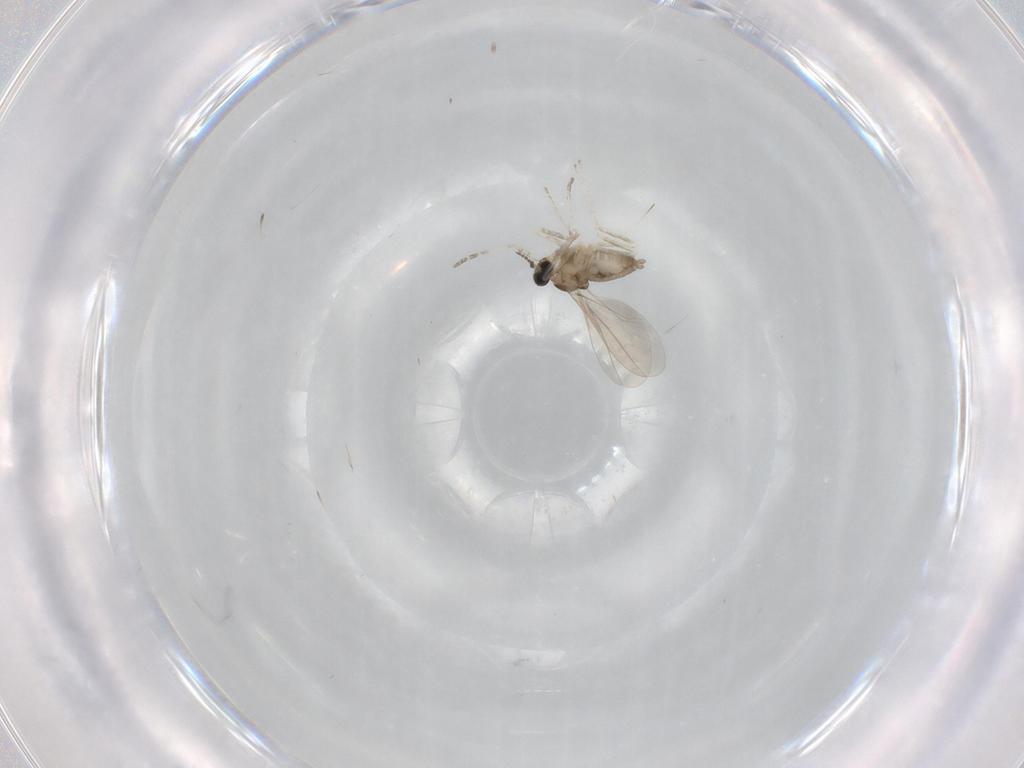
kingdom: Animalia
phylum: Arthropoda
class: Insecta
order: Diptera
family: Cecidomyiidae
